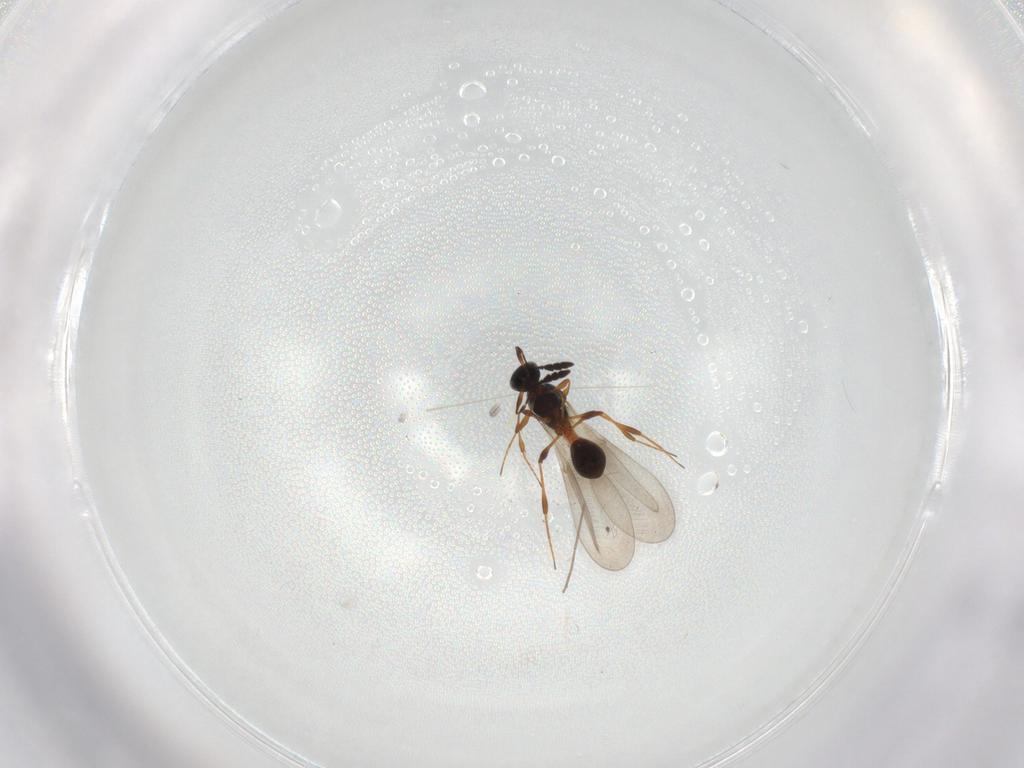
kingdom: Animalia
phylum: Arthropoda
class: Insecta
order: Hymenoptera
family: Platygastridae
